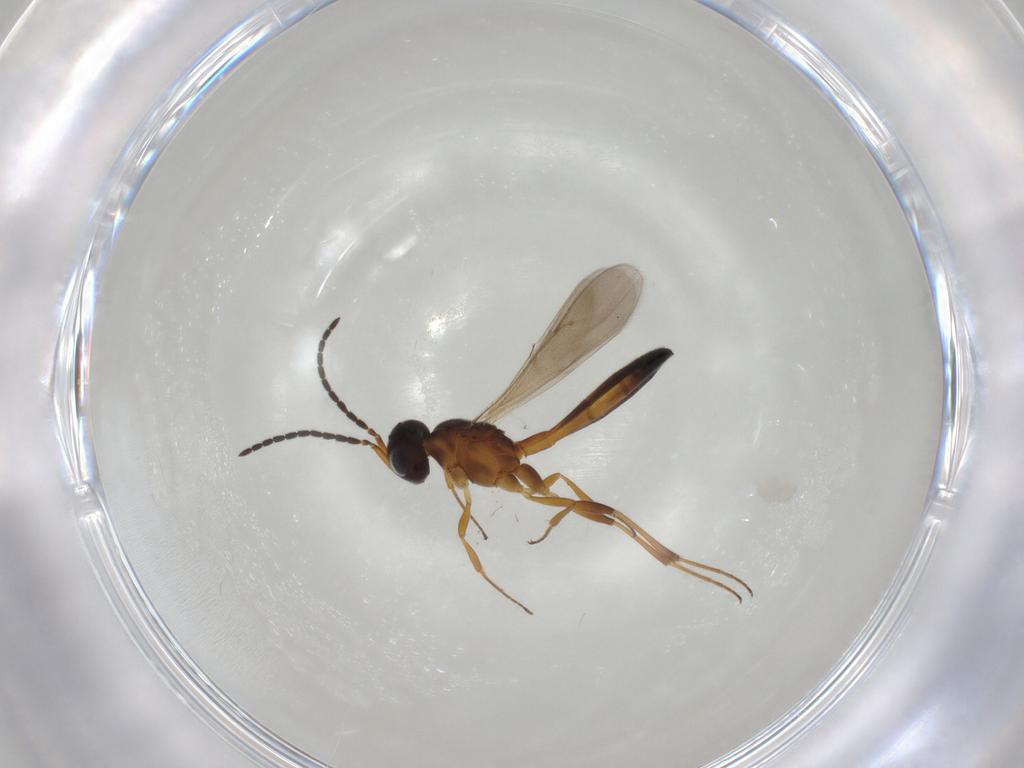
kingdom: Animalia
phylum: Arthropoda
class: Insecta
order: Hymenoptera
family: Scelionidae
